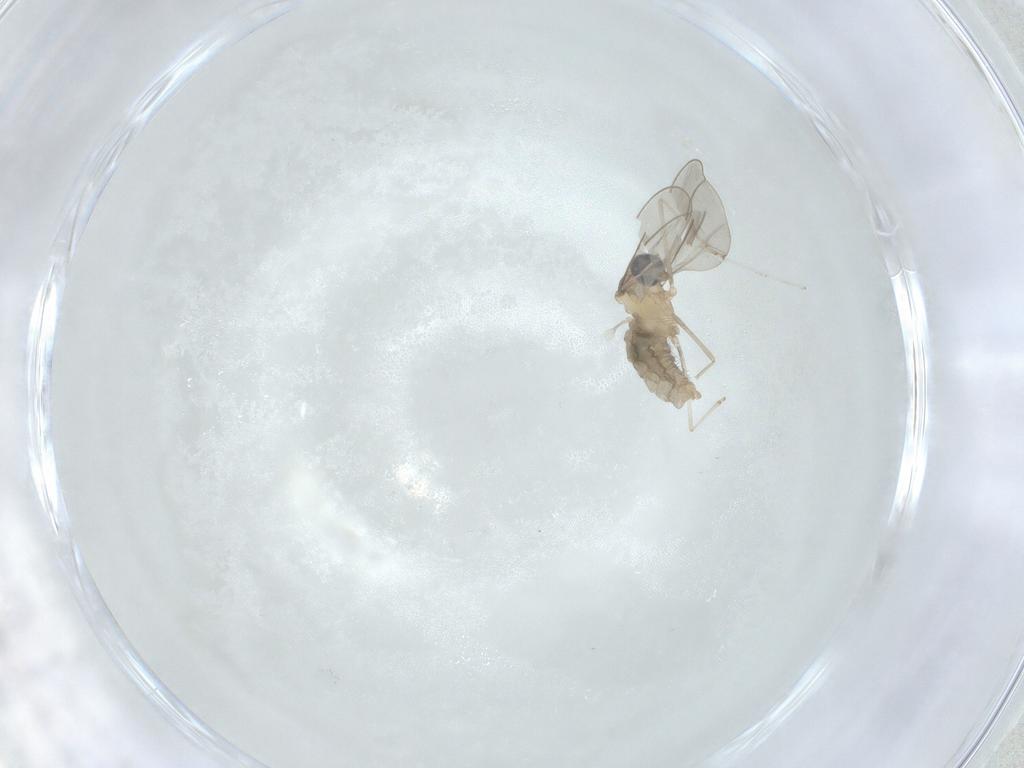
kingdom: Animalia
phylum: Arthropoda
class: Insecta
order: Diptera
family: Cecidomyiidae
